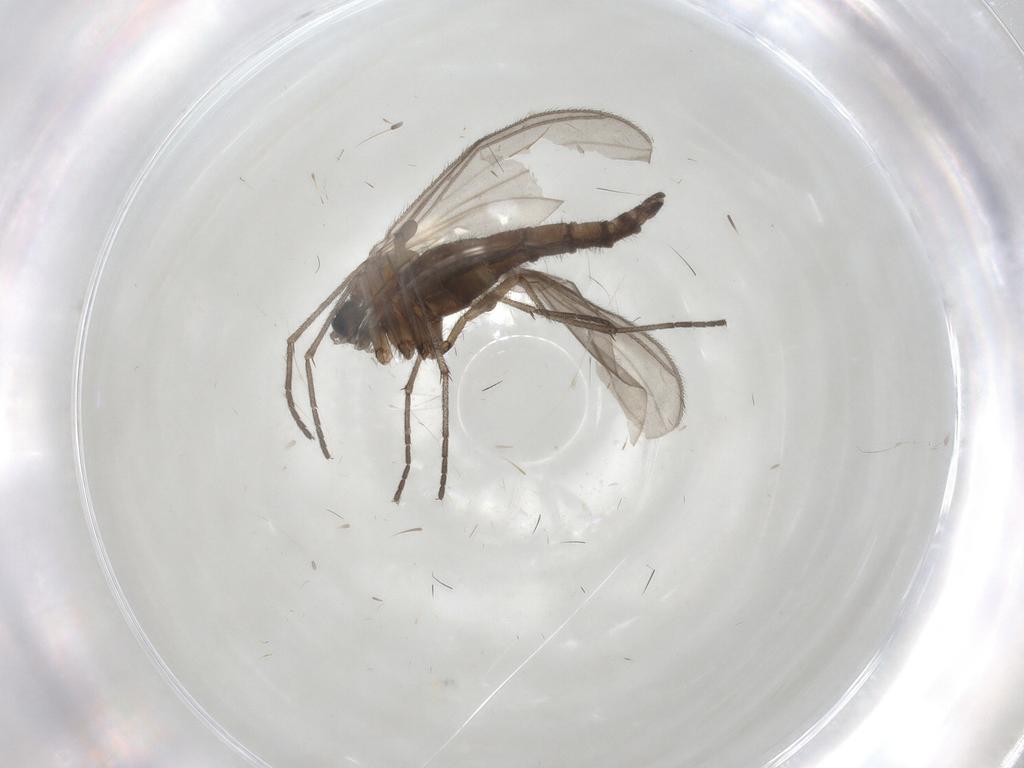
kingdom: Animalia
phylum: Arthropoda
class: Insecta
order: Diptera
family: Sciaridae
